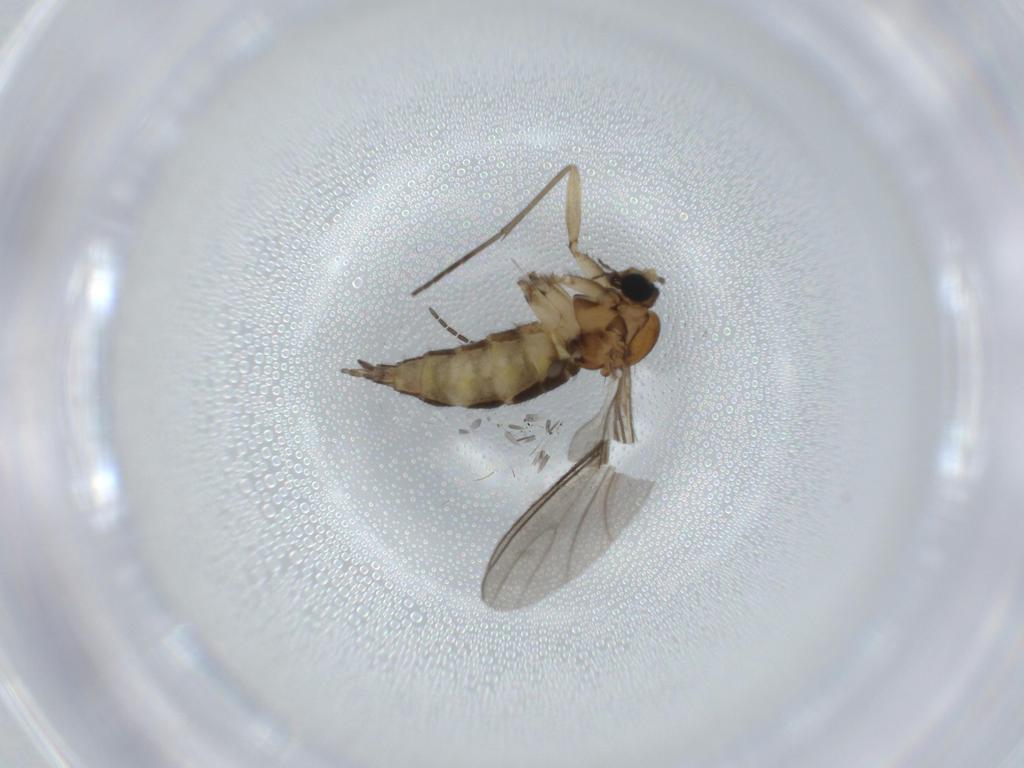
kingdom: Animalia
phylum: Arthropoda
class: Insecta
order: Diptera
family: Sciaridae
